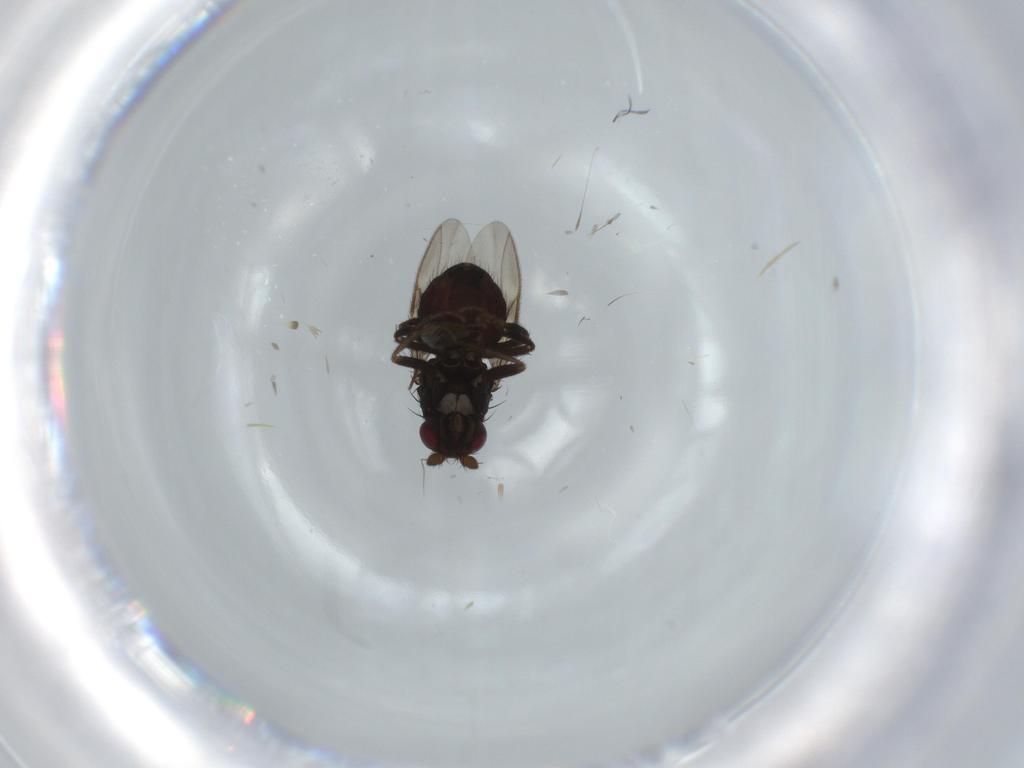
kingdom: Animalia
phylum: Arthropoda
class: Insecta
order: Diptera
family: Sphaeroceridae
